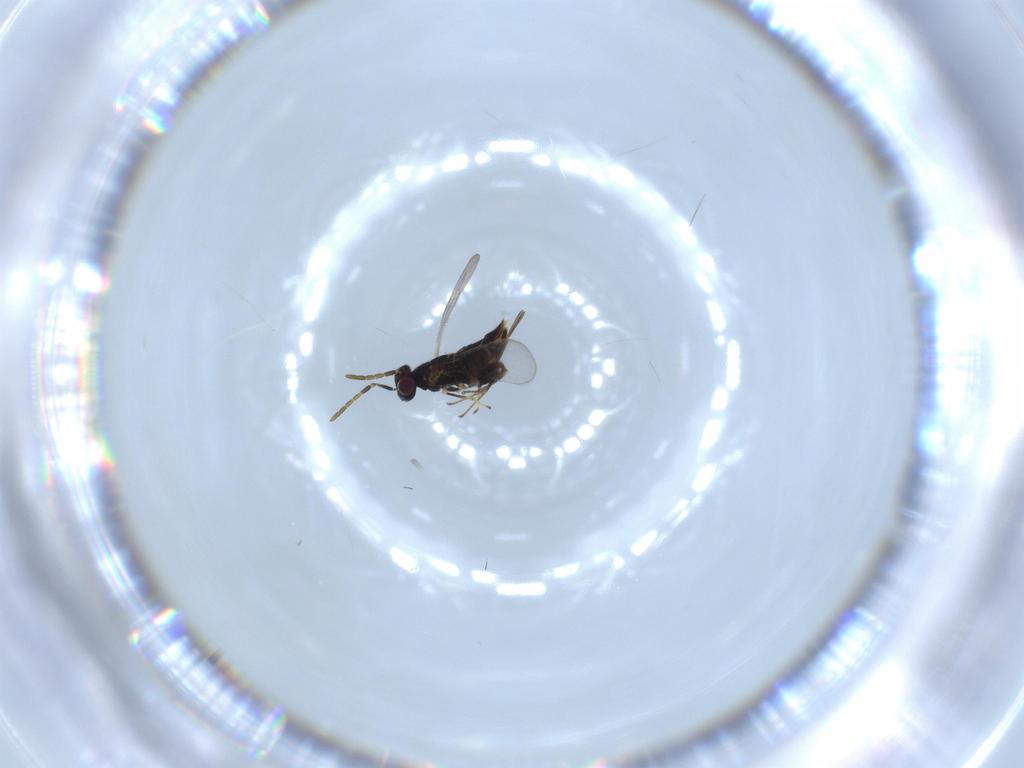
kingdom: Animalia
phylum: Arthropoda
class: Insecta
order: Hymenoptera
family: Aphelinidae
